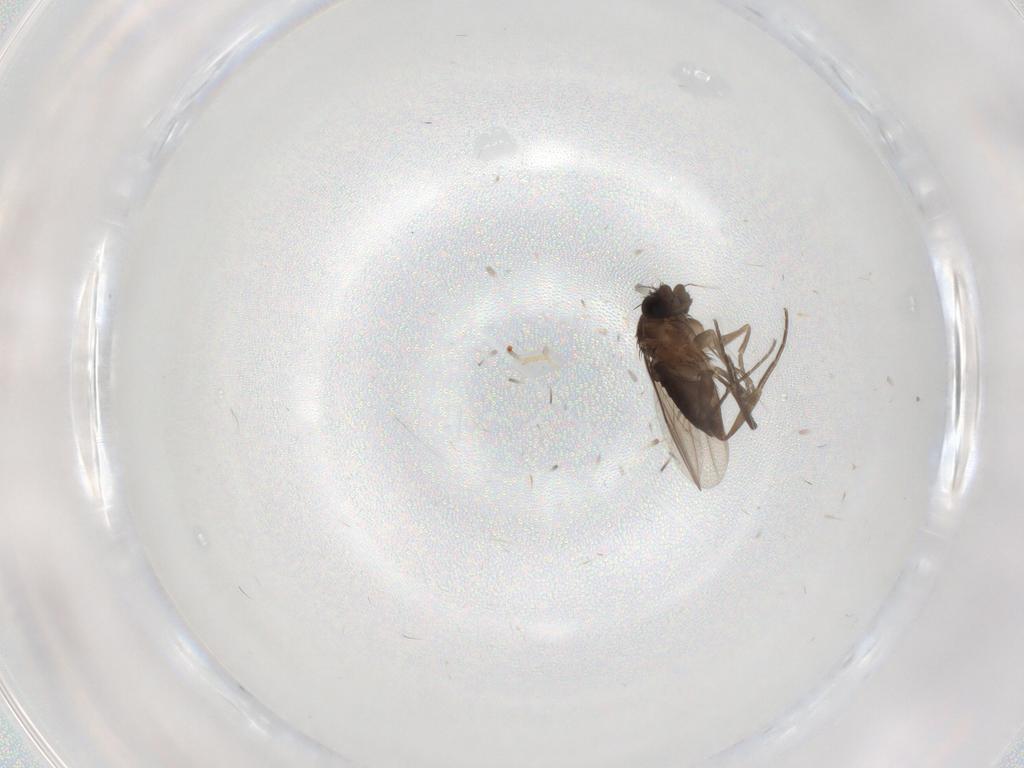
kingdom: Animalia
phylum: Arthropoda
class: Insecta
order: Diptera
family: Phoridae
